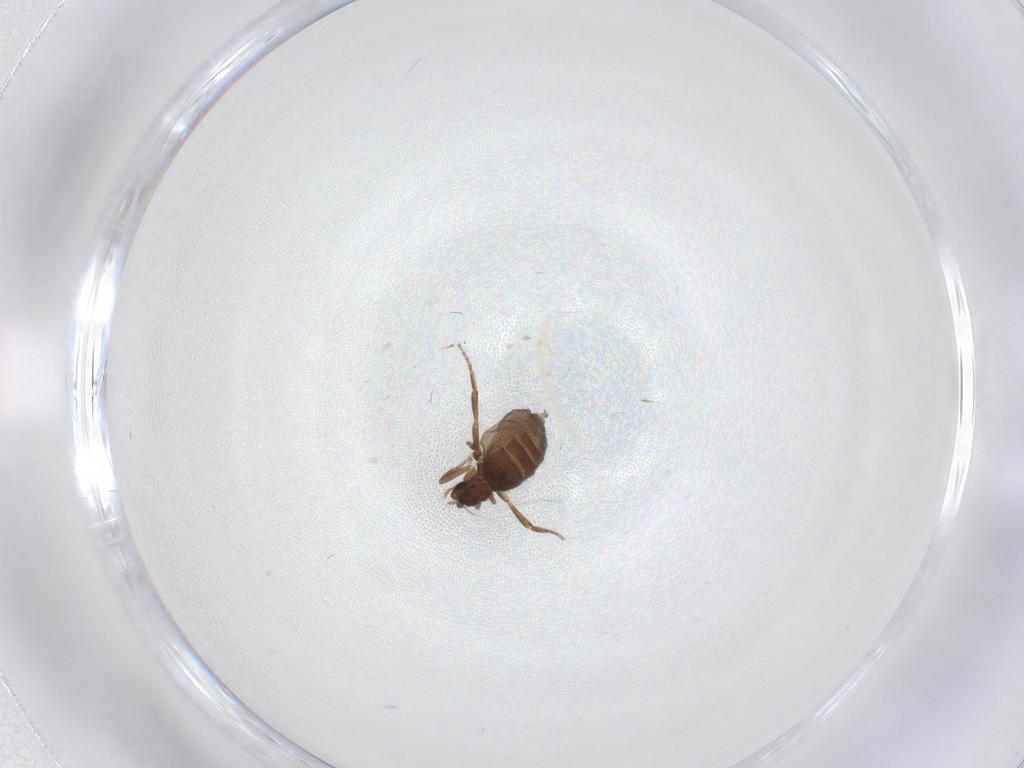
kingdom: Animalia
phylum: Arthropoda
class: Insecta
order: Diptera
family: Phoridae
